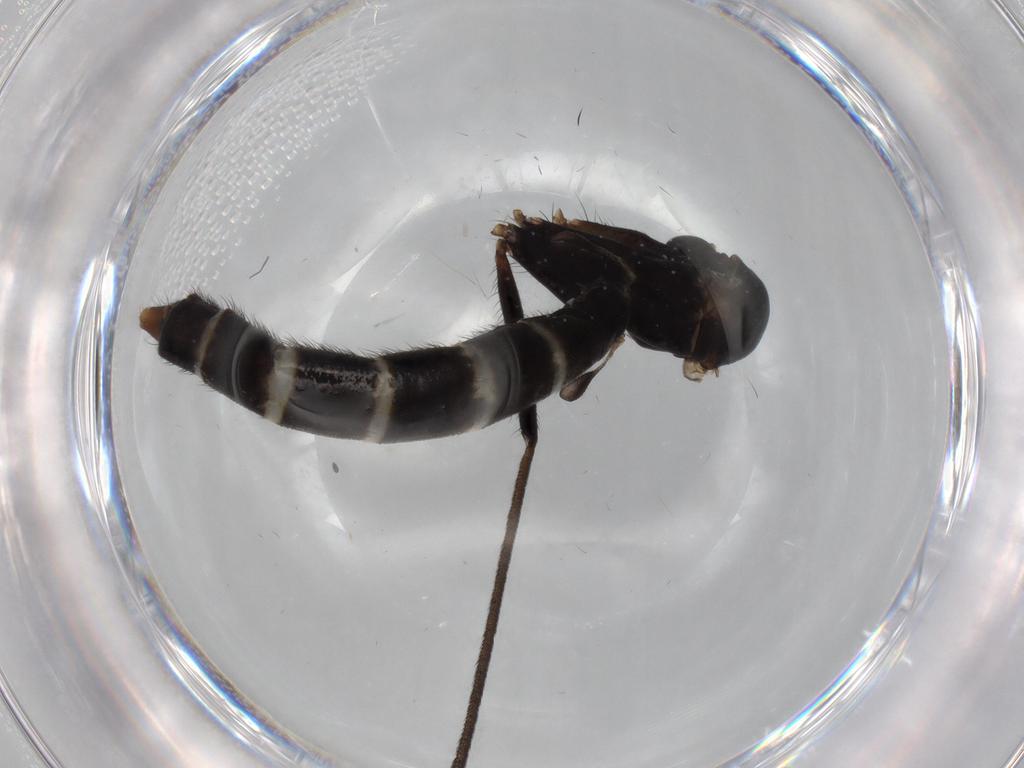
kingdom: Animalia
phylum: Arthropoda
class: Insecta
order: Diptera
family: Ditomyiidae
